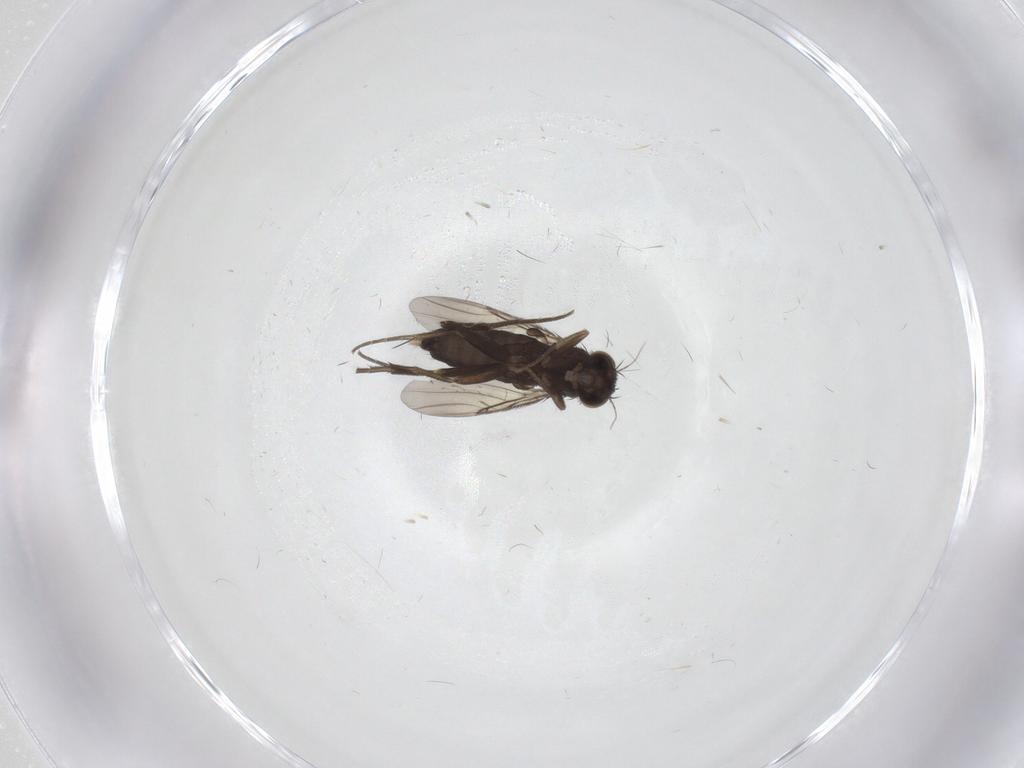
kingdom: Animalia
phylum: Arthropoda
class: Insecta
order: Diptera
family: Phoridae
